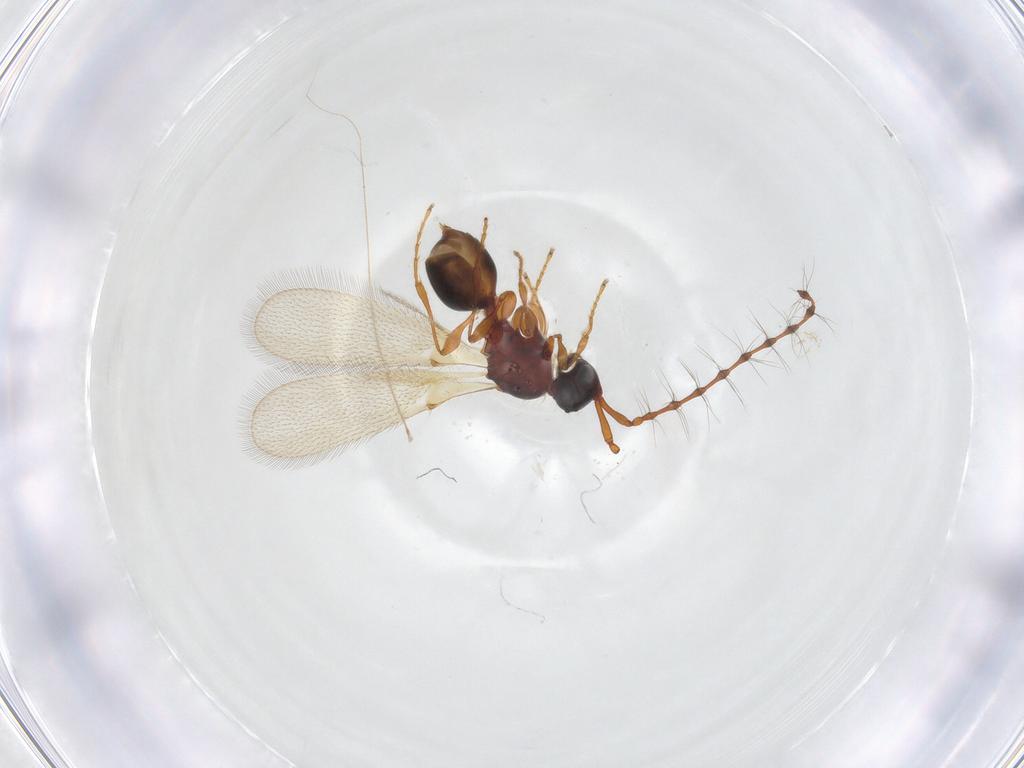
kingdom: Animalia
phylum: Arthropoda
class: Insecta
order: Hymenoptera
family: Diapriidae
